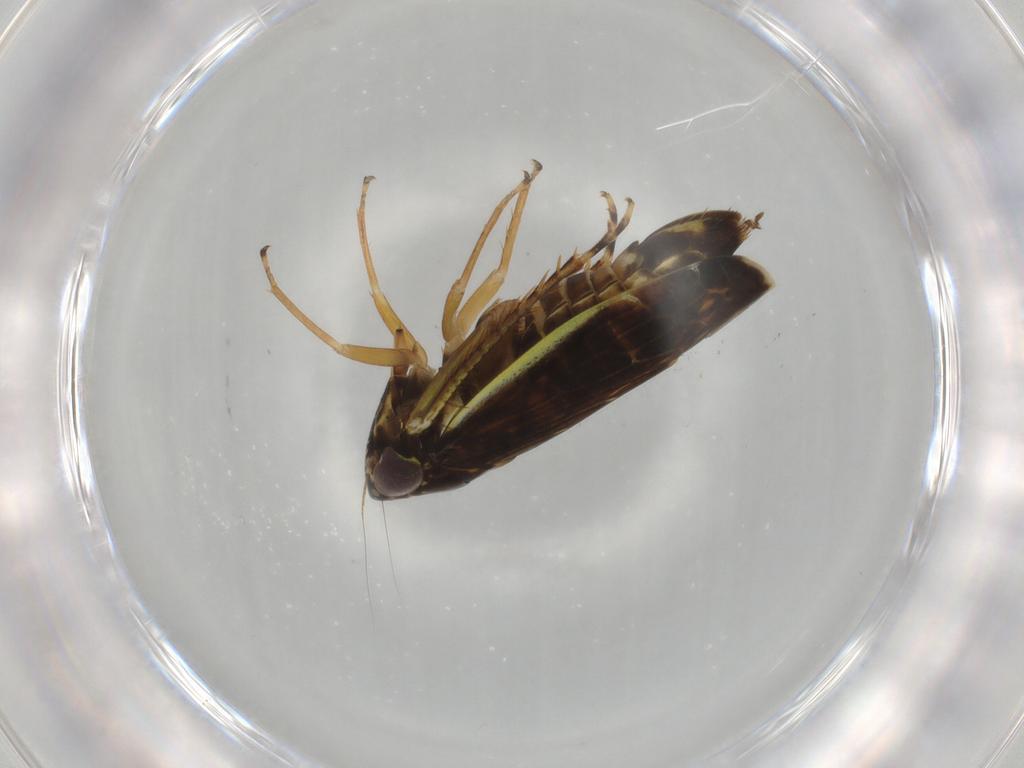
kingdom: Animalia
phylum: Arthropoda
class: Insecta
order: Hemiptera
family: Cicadellidae
